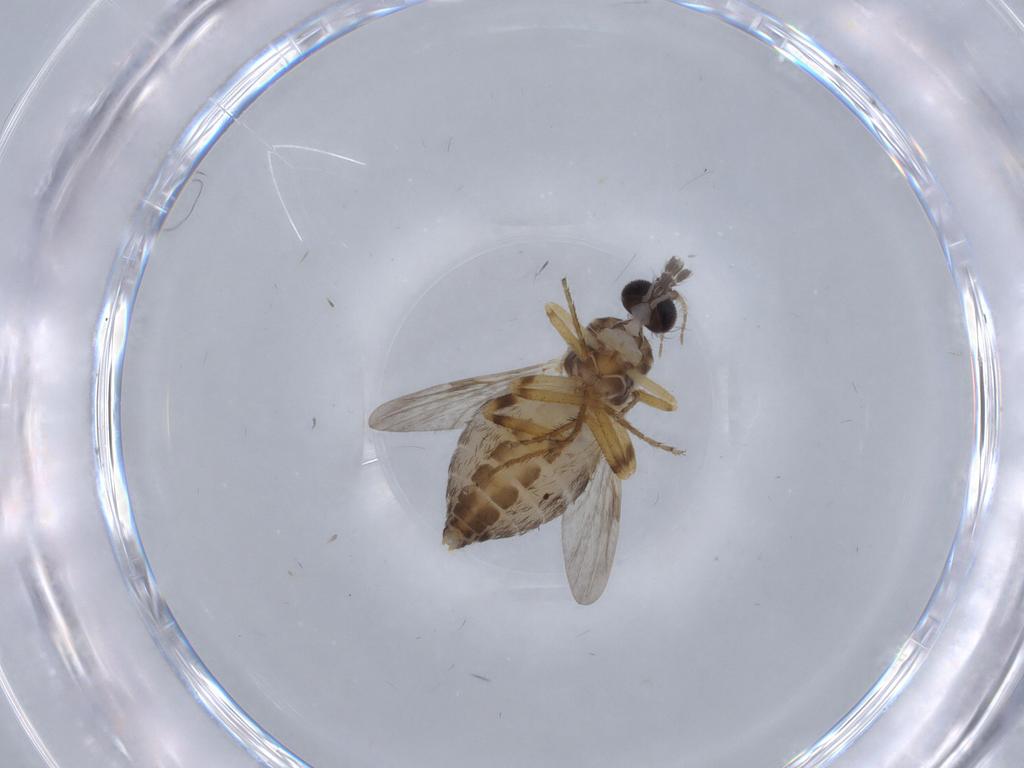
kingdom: Animalia
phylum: Arthropoda
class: Insecta
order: Diptera
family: Ceratopogonidae
